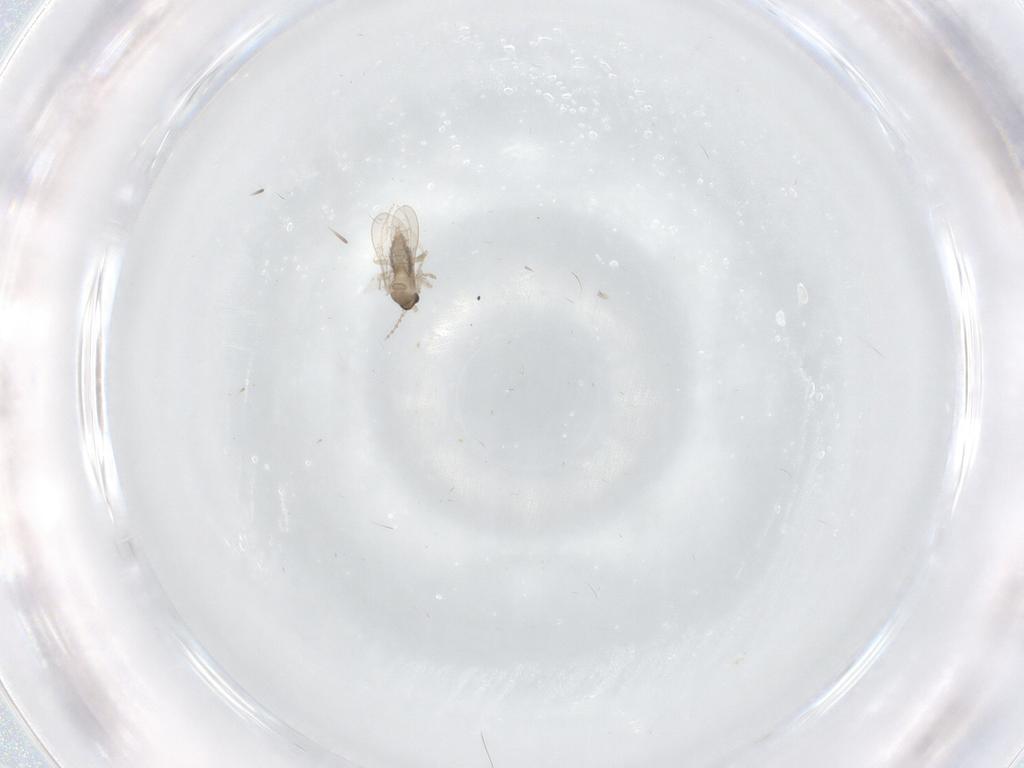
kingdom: Animalia
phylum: Arthropoda
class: Insecta
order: Diptera
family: Cecidomyiidae
